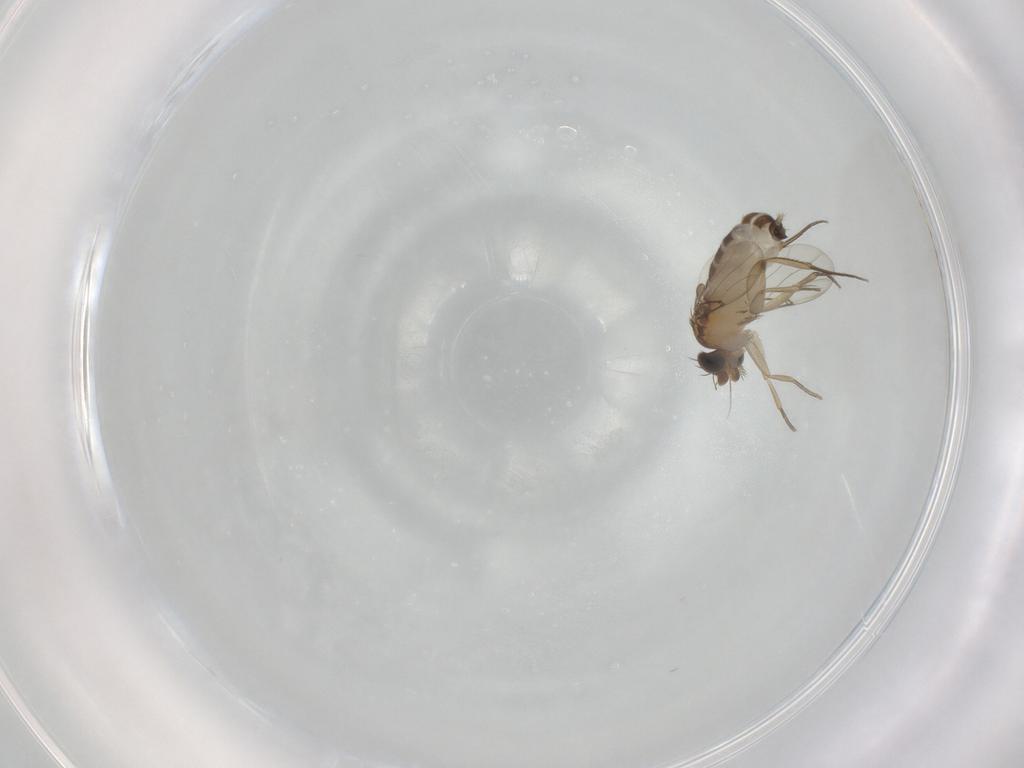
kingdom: Animalia
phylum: Arthropoda
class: Insecta
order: Diptera
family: Phoridae
